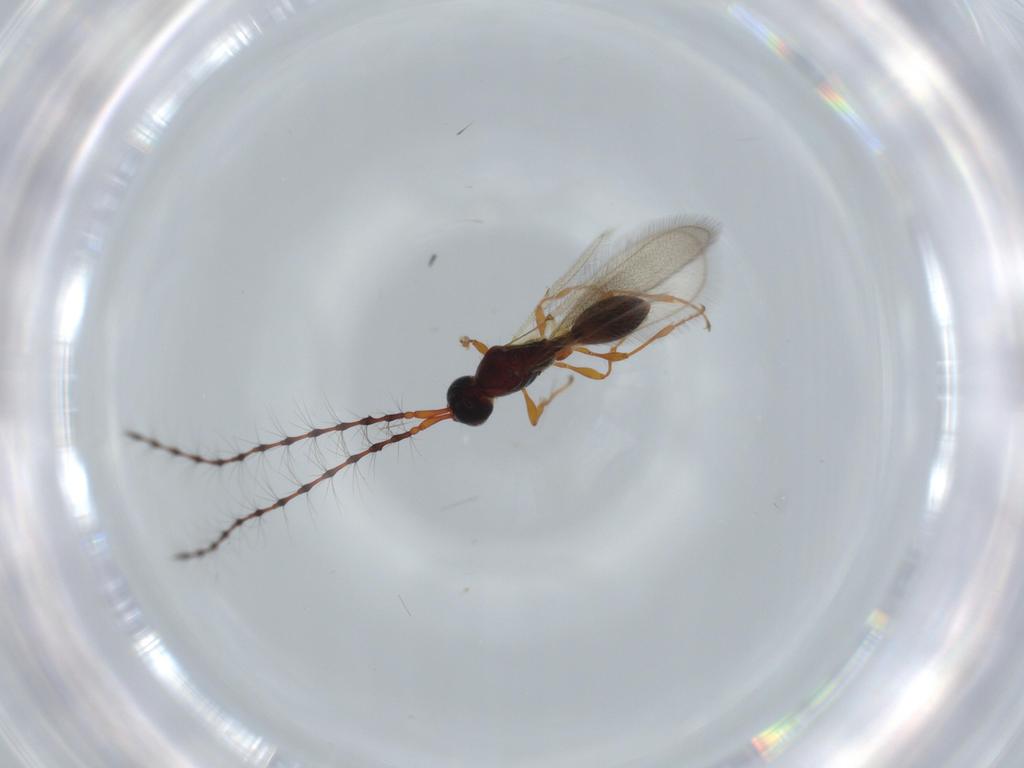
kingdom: Animalia
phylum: Arthropoda
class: Insecta
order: Hymenoptera
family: Diapriidae
